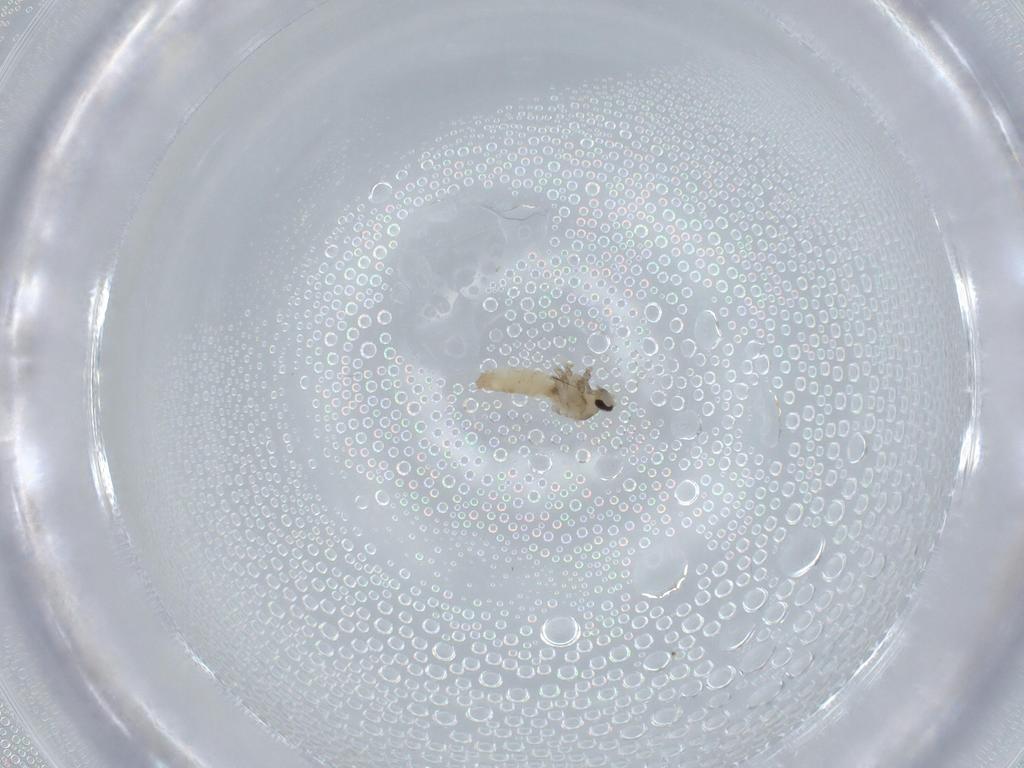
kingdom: Animalia
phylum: Arthropoda
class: Insecta
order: Diptera
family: Cecidomyiidae
